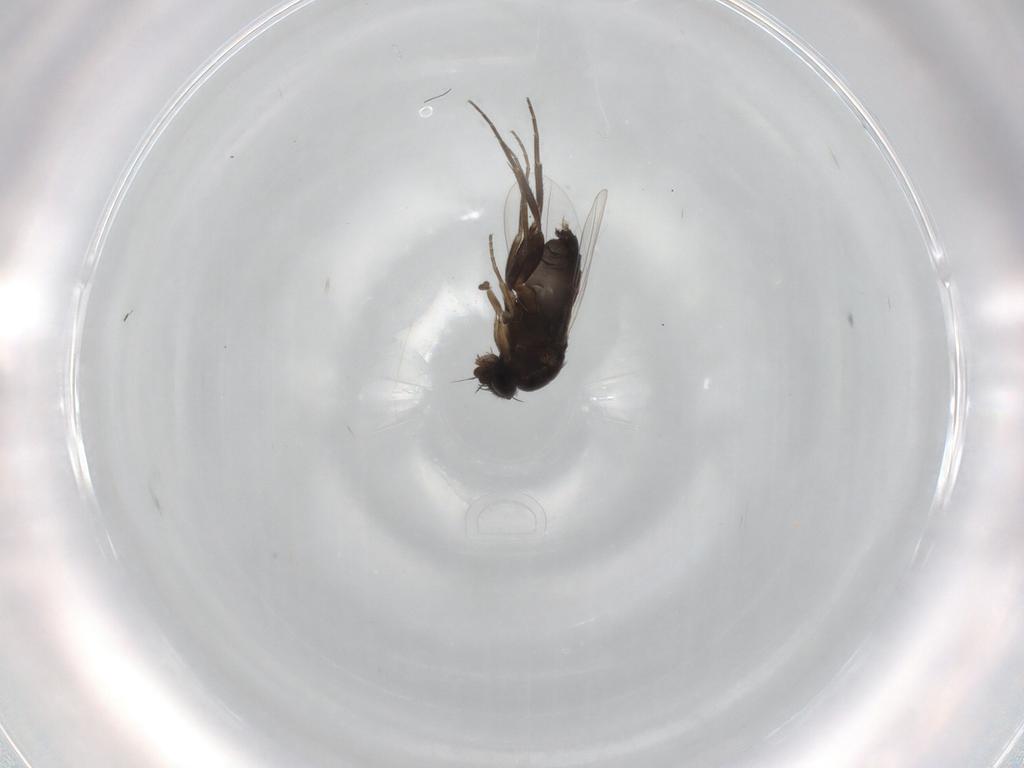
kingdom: Animalia
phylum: Arthropoda
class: Insecta
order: Diptera
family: Phoridae
